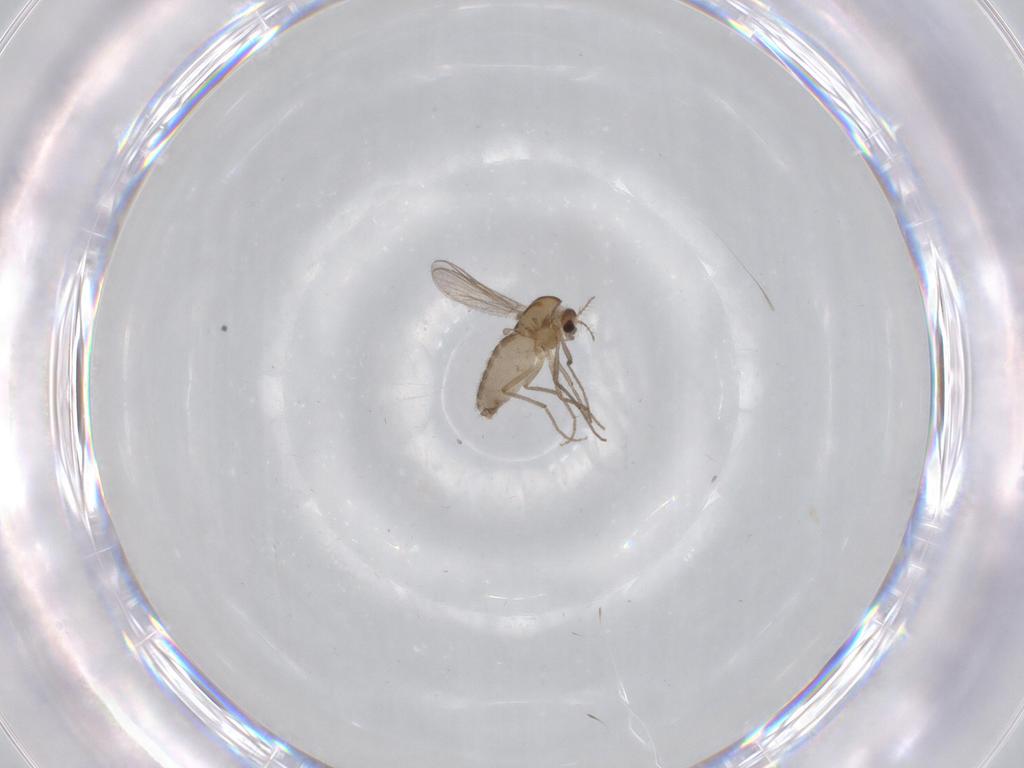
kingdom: Animalia
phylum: Arthropoda
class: Insecta
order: Diptera
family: Chironomidae
